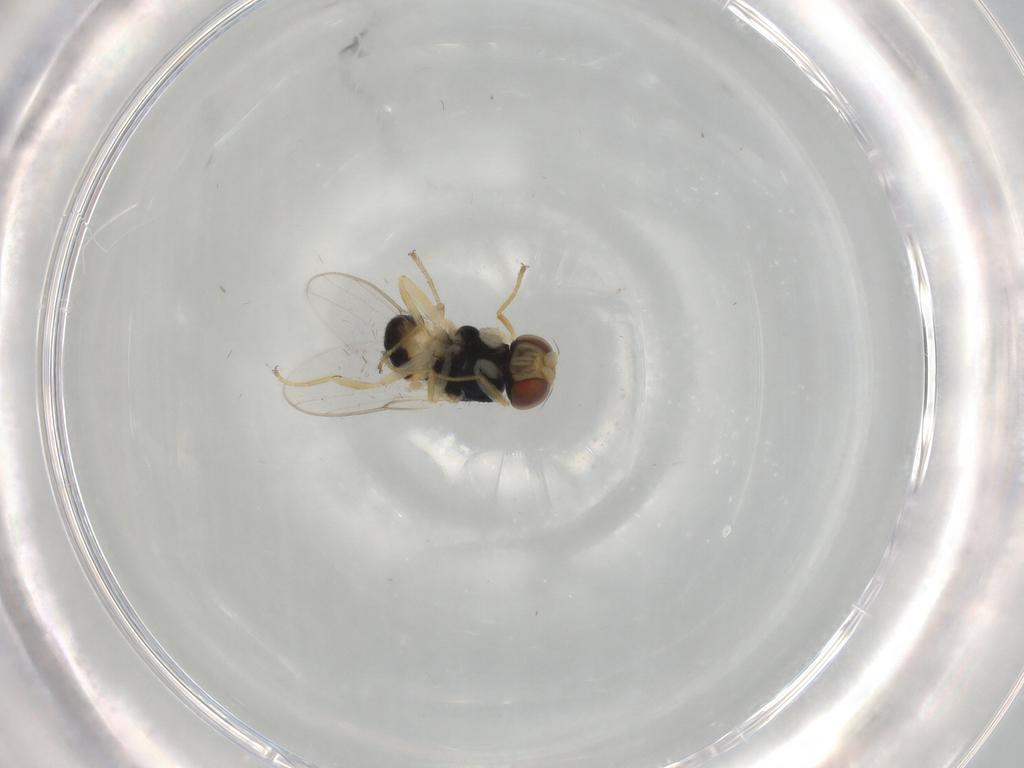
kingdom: Animalia
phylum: Arthropoda
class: Insecta
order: Diptera
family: Chloropidae
